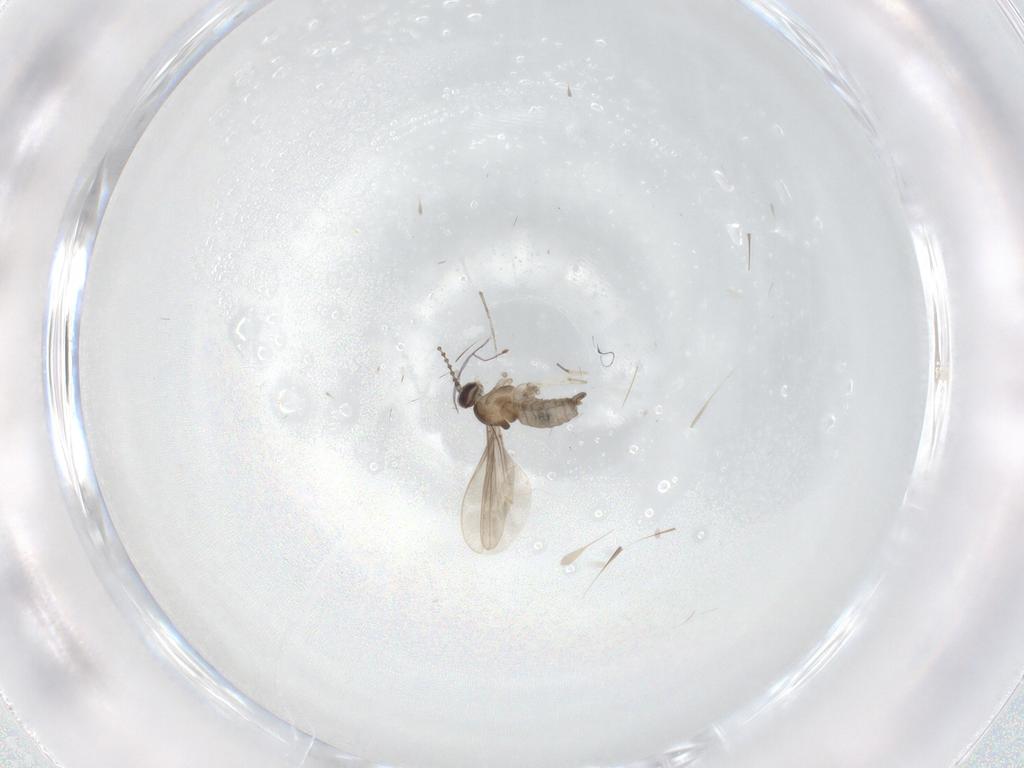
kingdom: Animalia
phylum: Arthropoda
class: Insecta
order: Diptera
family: Cecidomyiidae
